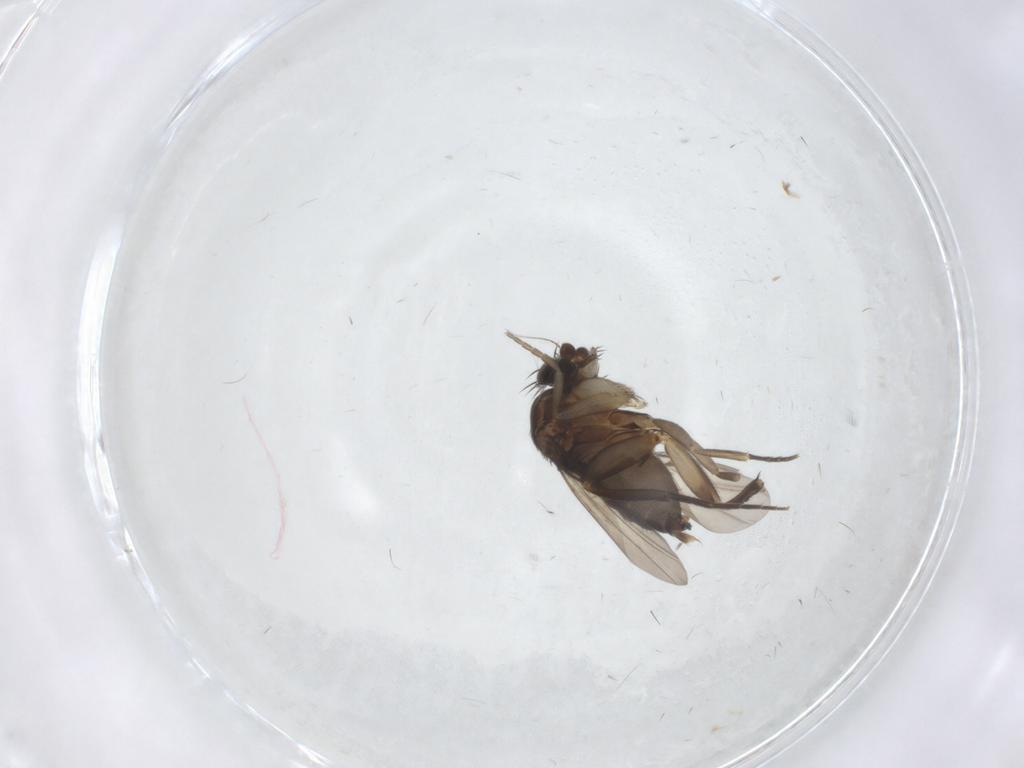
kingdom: Animalia
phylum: Arthropoda
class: Insecta
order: Diptera
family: Phoridae
